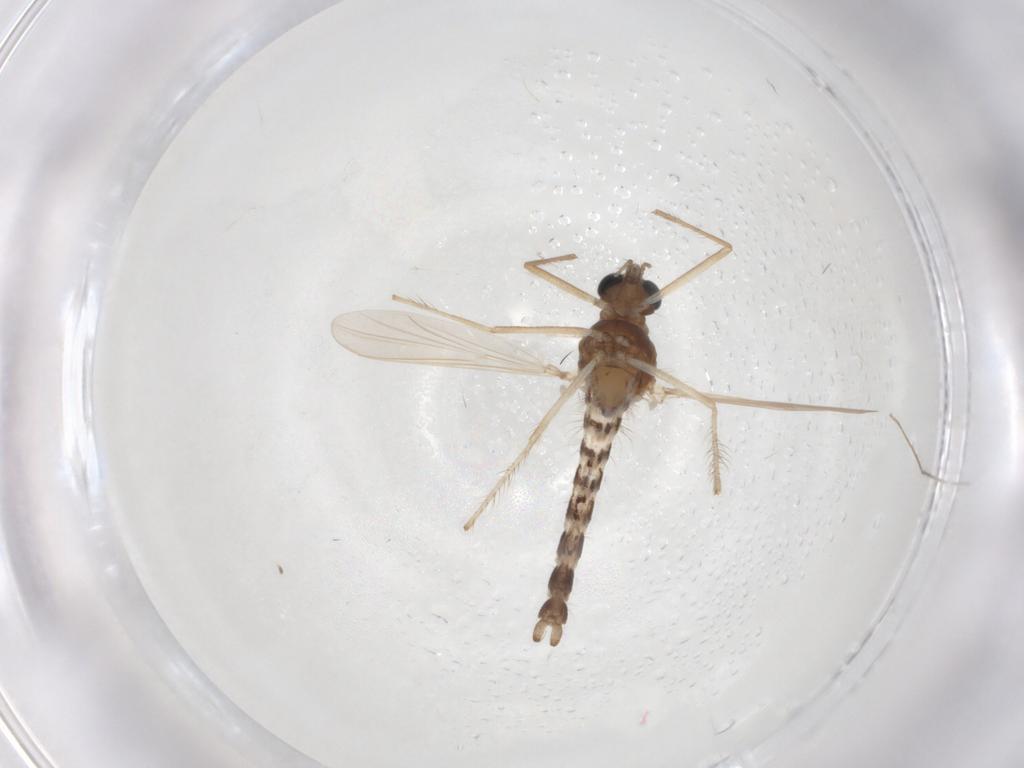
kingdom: Animalia
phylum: Arthropoda
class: Insecta
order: Diptera
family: Chironomidae
